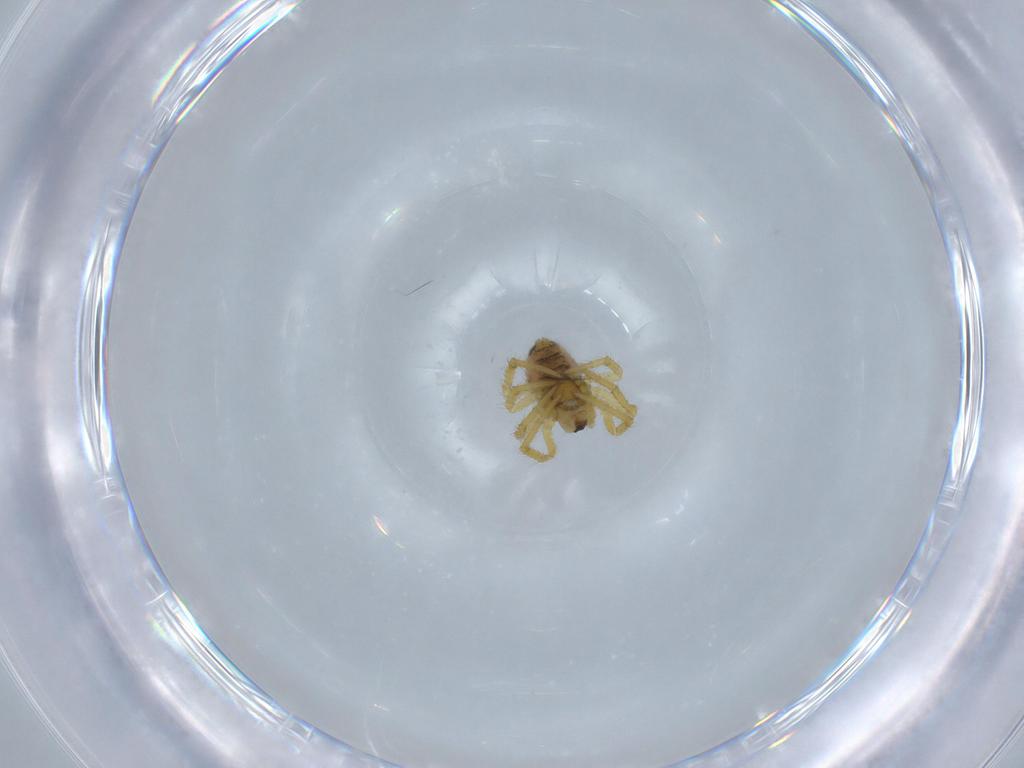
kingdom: Animalia
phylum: Arthropoda
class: Arachnida
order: Araneae
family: Theridiidae
